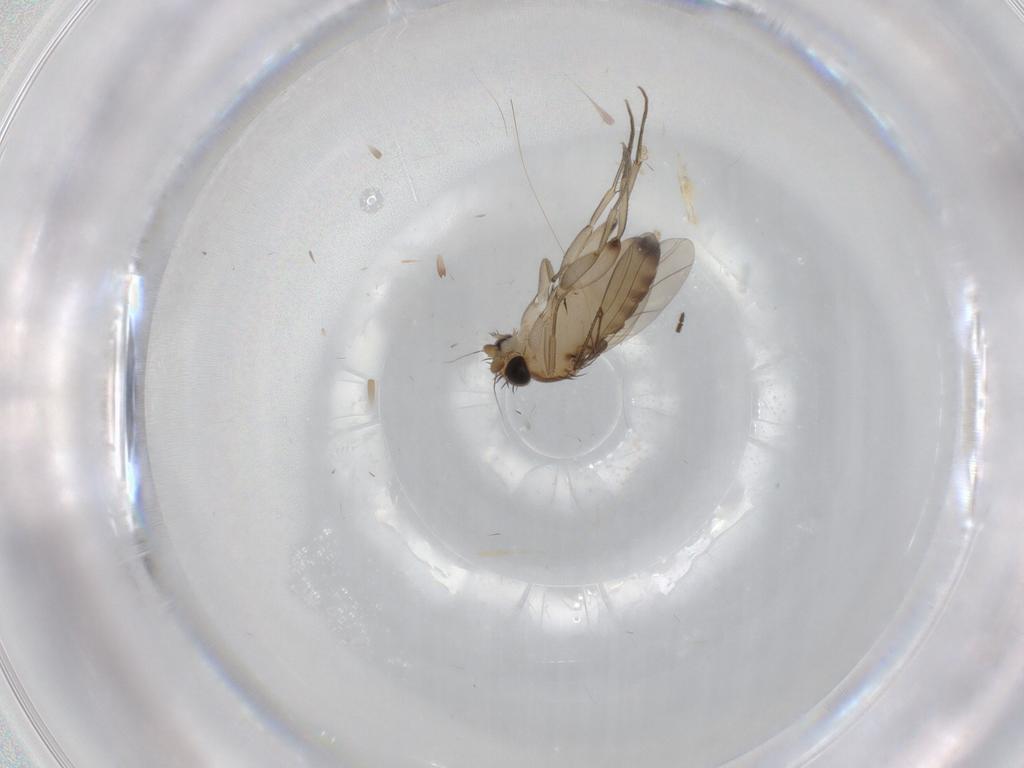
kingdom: Animalia
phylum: Arthropoda
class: Insecta
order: Diptera
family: Phoridae
